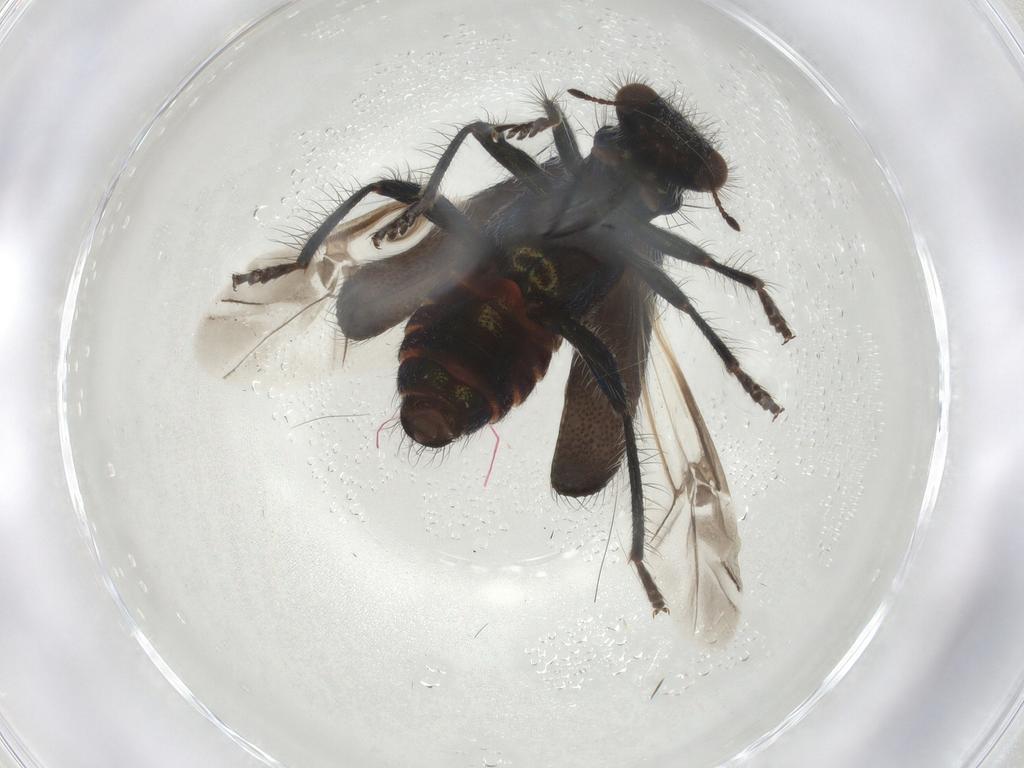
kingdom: Animalia
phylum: Arthropoda
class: Insecta
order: Coleoptera
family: Cleridae
